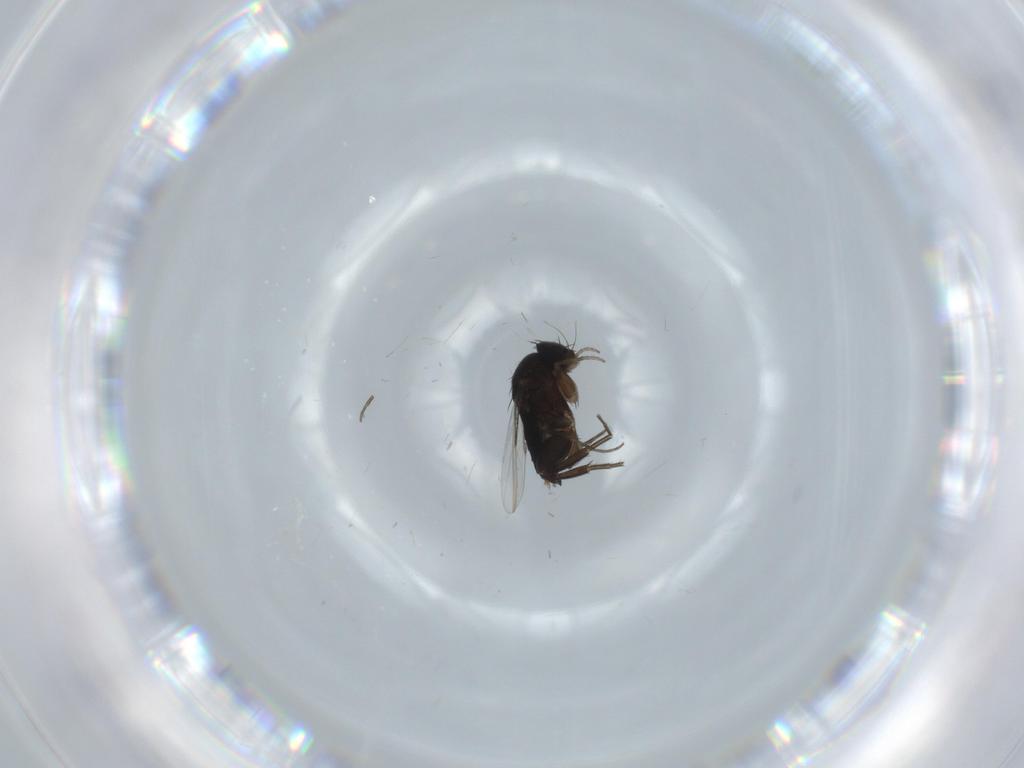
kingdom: Animalia
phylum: Arthropoda
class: Insecta
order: Diptera
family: Phoridae
